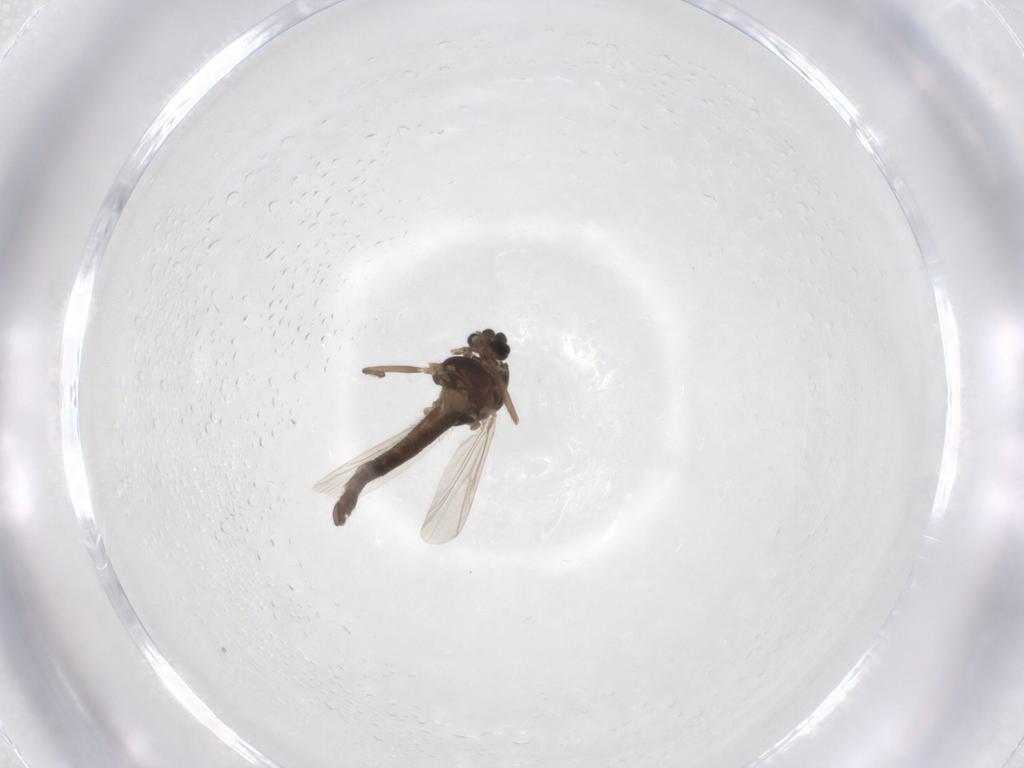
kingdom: Animalia
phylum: Arthropoda
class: Insecta
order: Diptera
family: Chironomidae
